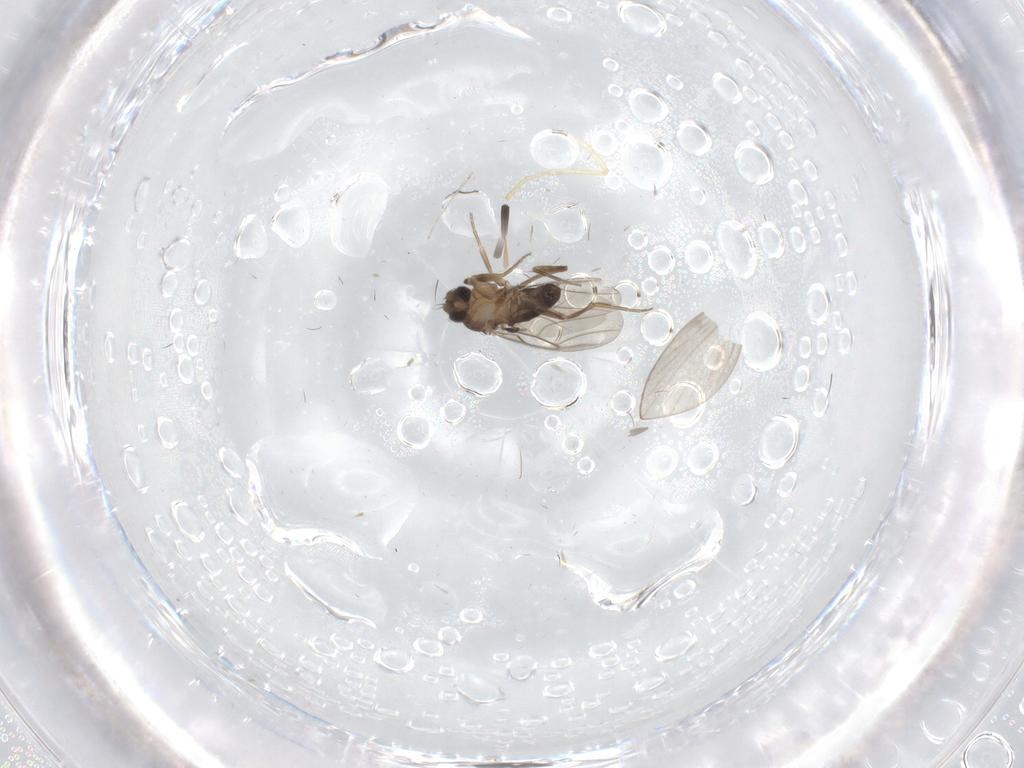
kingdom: Animalia
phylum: Arthropoda
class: Insecta
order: Diptera
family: Phoridae
